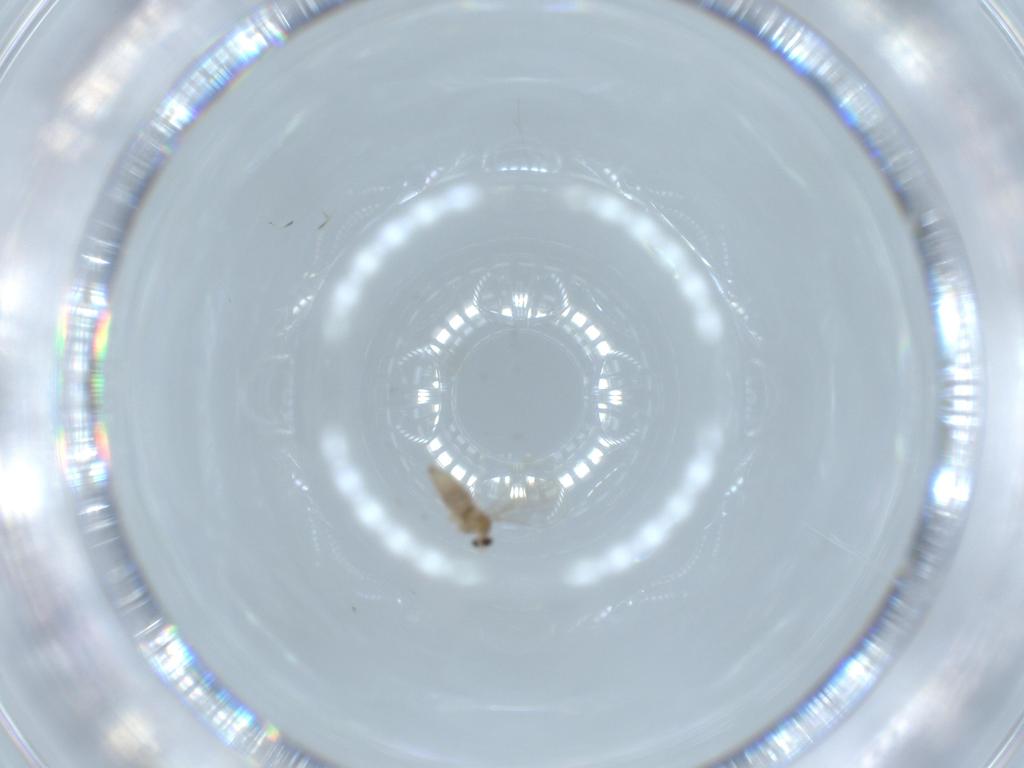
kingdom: Animalia
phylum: Arthropoda
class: Insecta
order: Diptera
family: Cecidomyiidae
